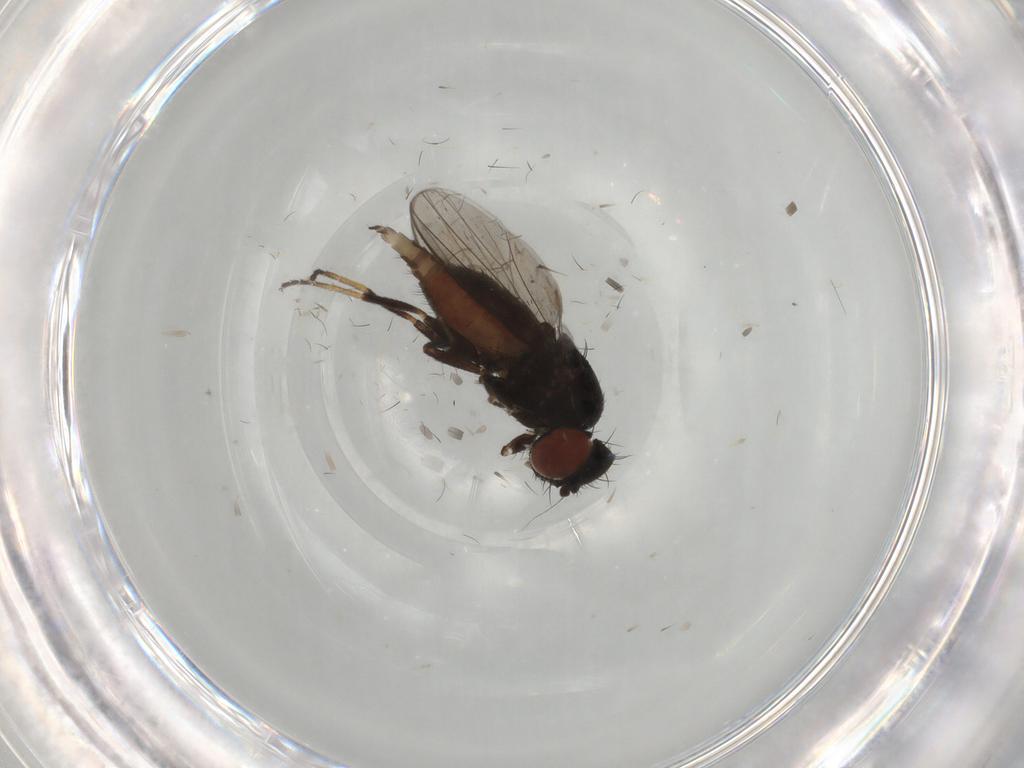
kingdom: Animalia
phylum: Arthropoda
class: Insecta
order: Diptera
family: Milichiidae
